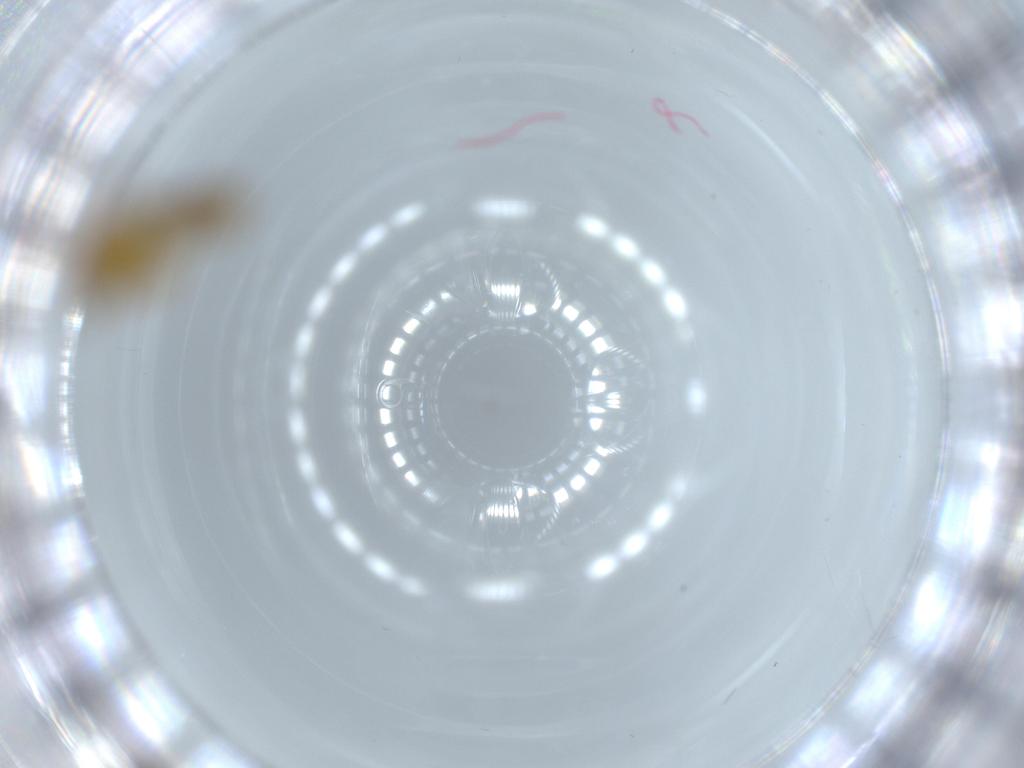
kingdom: Animalia
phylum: Arthropoda
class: Insecta
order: Diptera
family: Chironomidae
